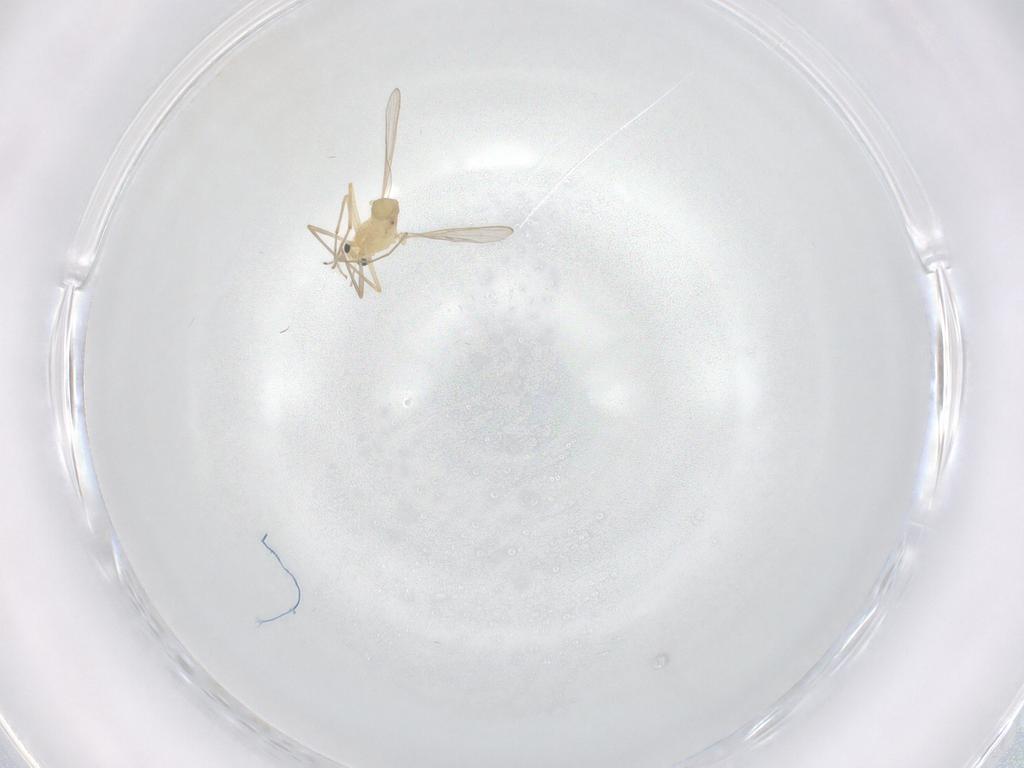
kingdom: Animalia
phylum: Arthropoda
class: Insecta
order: Diptera
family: Chironomidae
